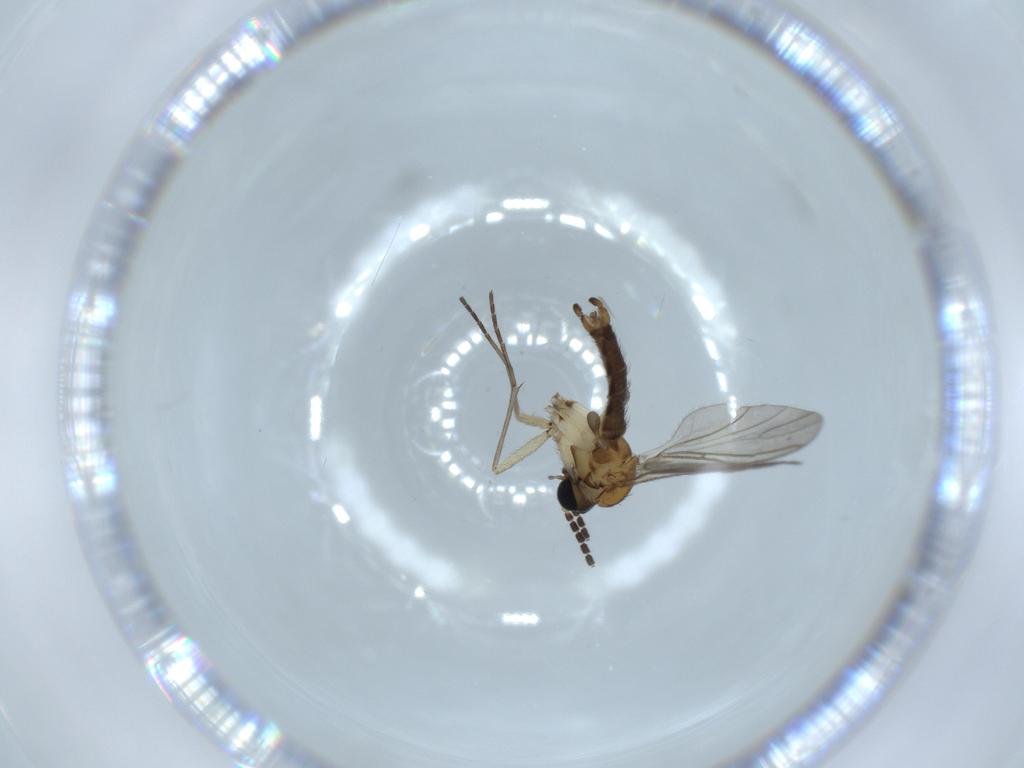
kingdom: Animalia
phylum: Arthropoda
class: Insecta
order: Diptera
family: Sciaridae
